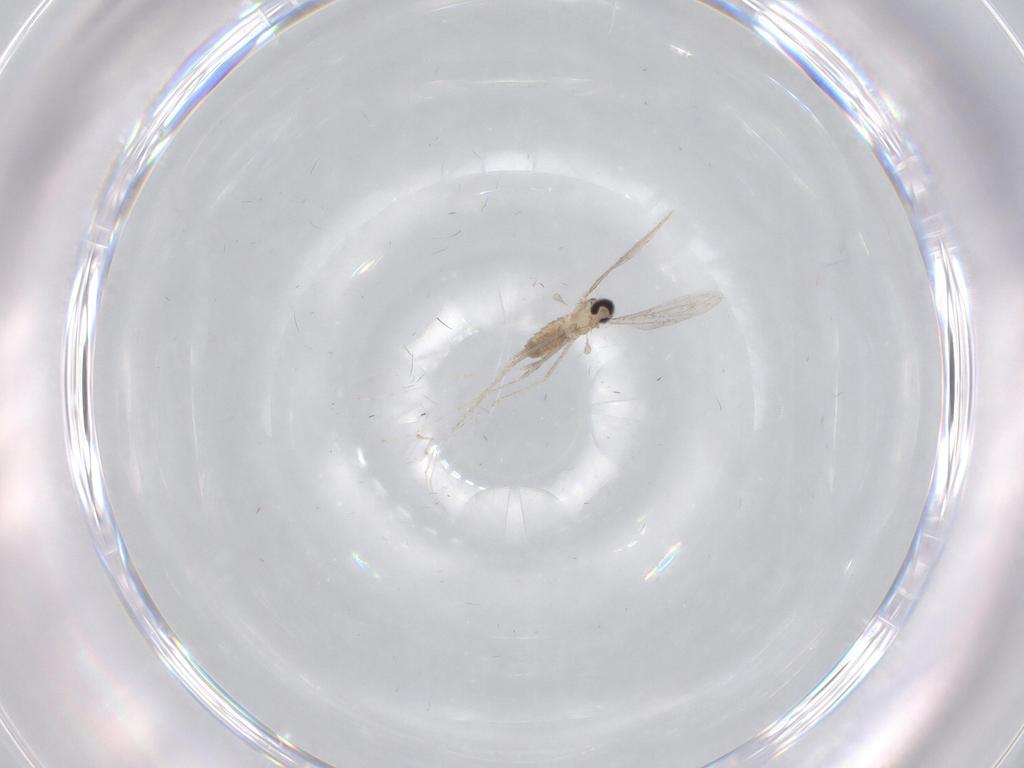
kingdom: Animalia
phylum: Arthropoda
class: Insecta
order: Diptera
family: Cecidomyiidae
